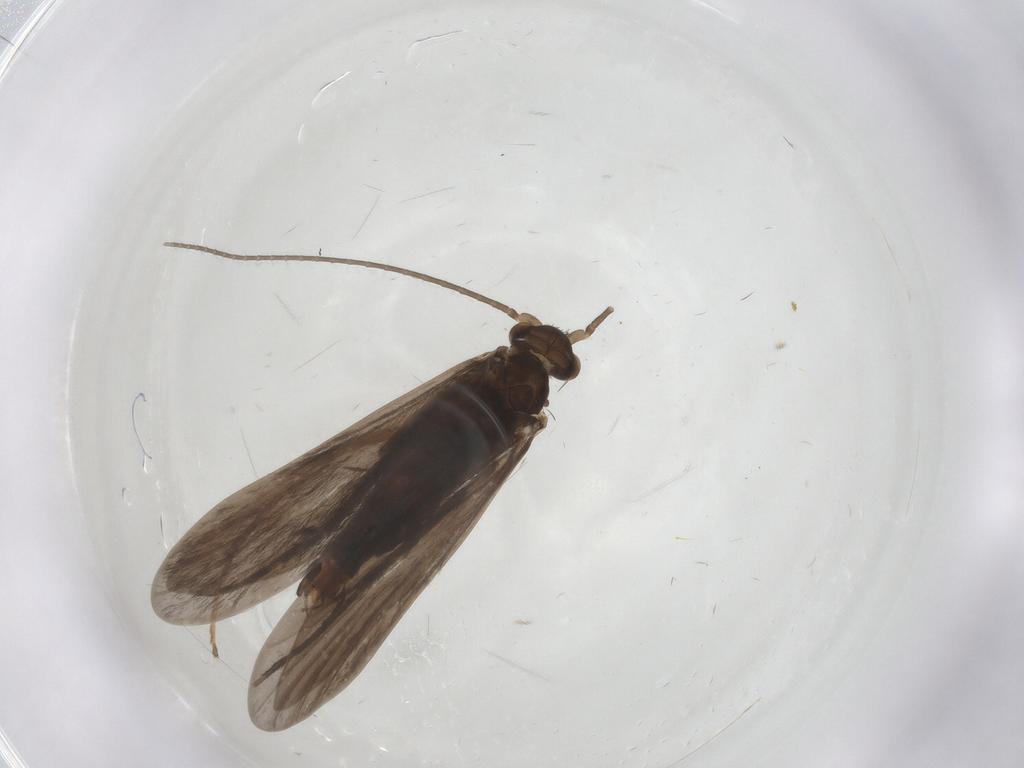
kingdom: Animalia
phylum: Arthropoda
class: Insecta
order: Trichoptera
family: Xiphocentronidae
